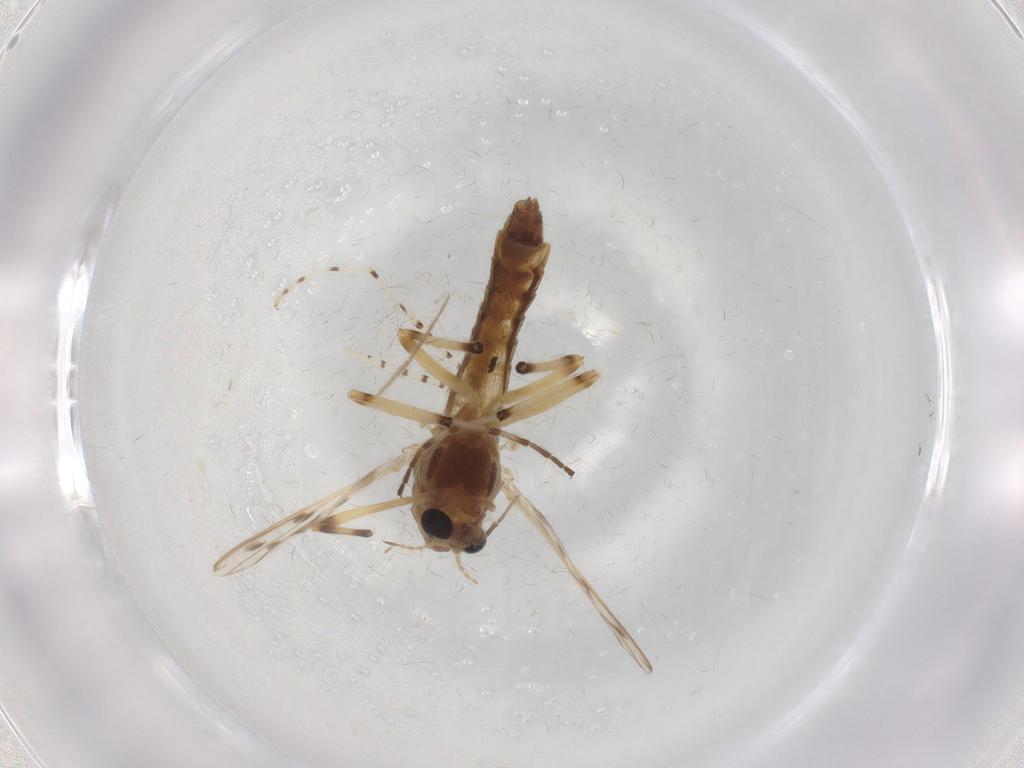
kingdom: Animalia
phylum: Arthropoda
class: Insecta
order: Diptera
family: Chironomidae
